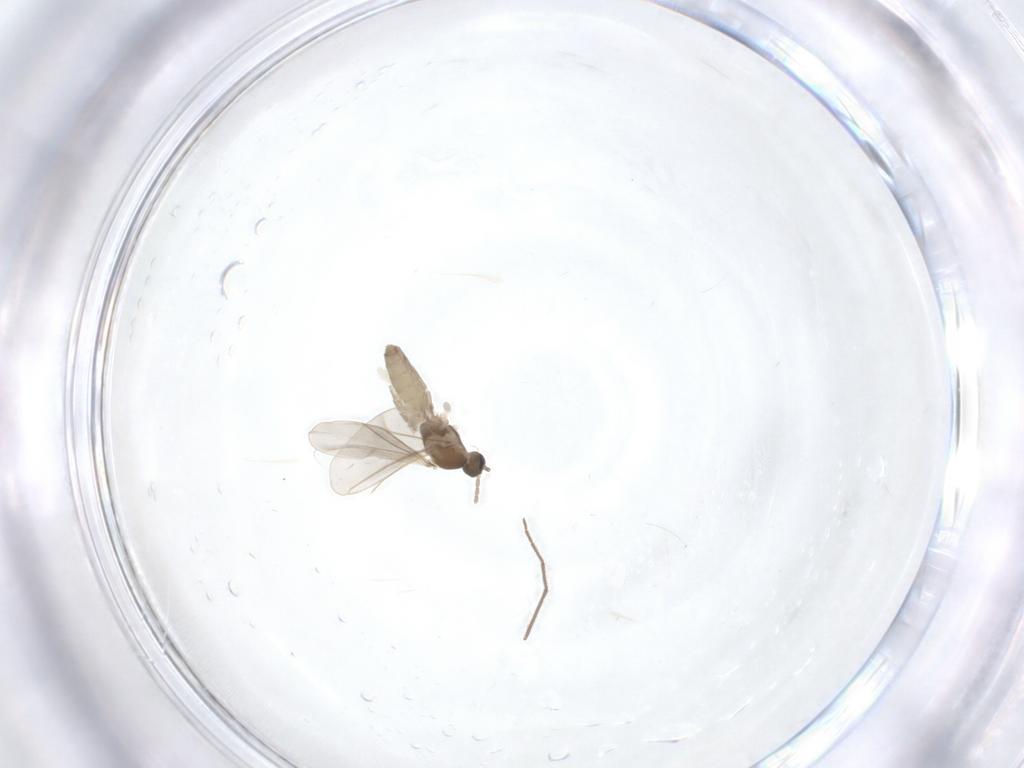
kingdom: Animalia
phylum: Arthropoda
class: Insecta
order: Diptera
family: Cecidomyiidae
